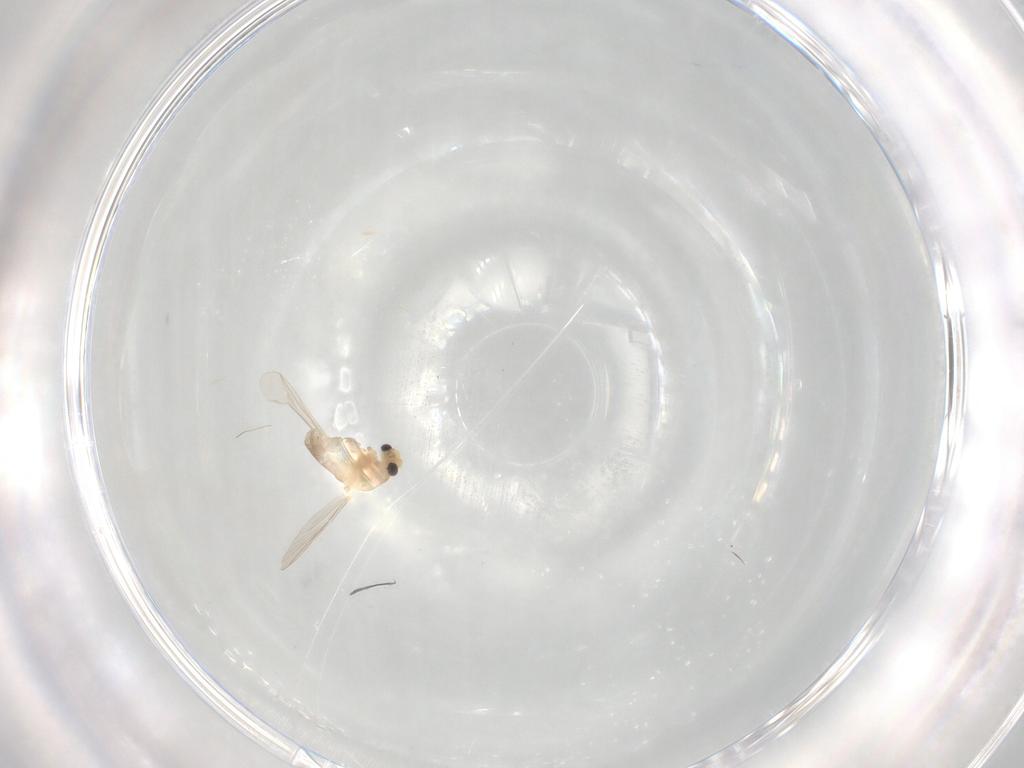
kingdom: Animalia
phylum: Arthropoda
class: Insecta
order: Diptera
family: Chironomidae
